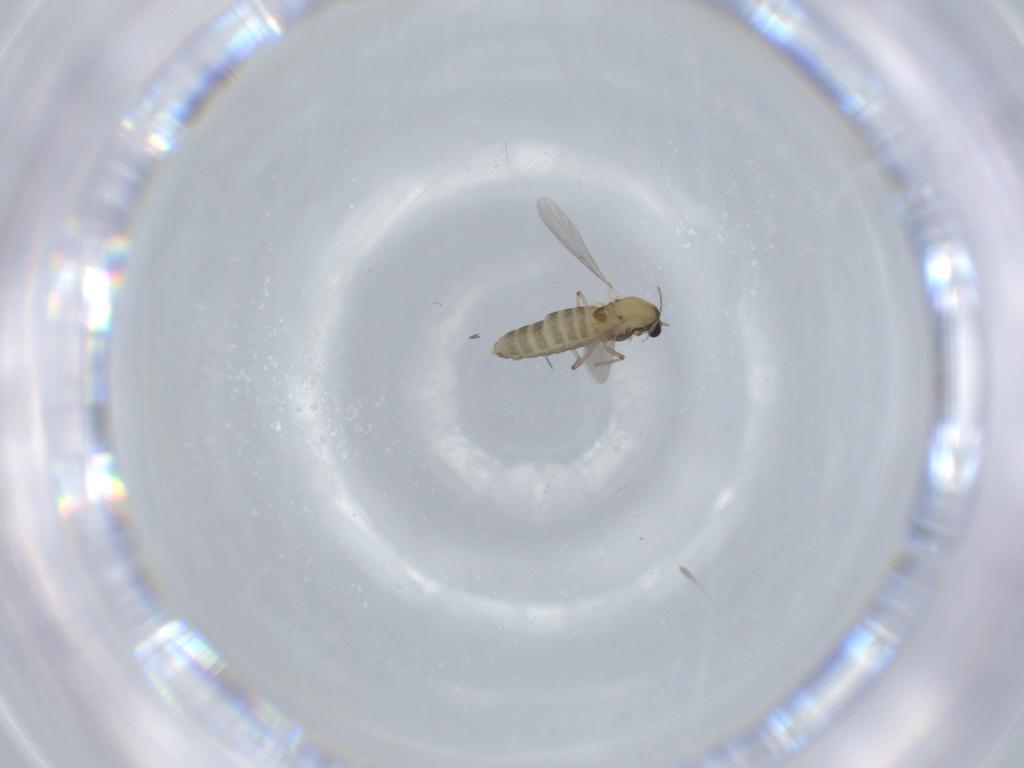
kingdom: Animalia
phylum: Arthropoda
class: Insecta
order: Diptera
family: Chironomidae
